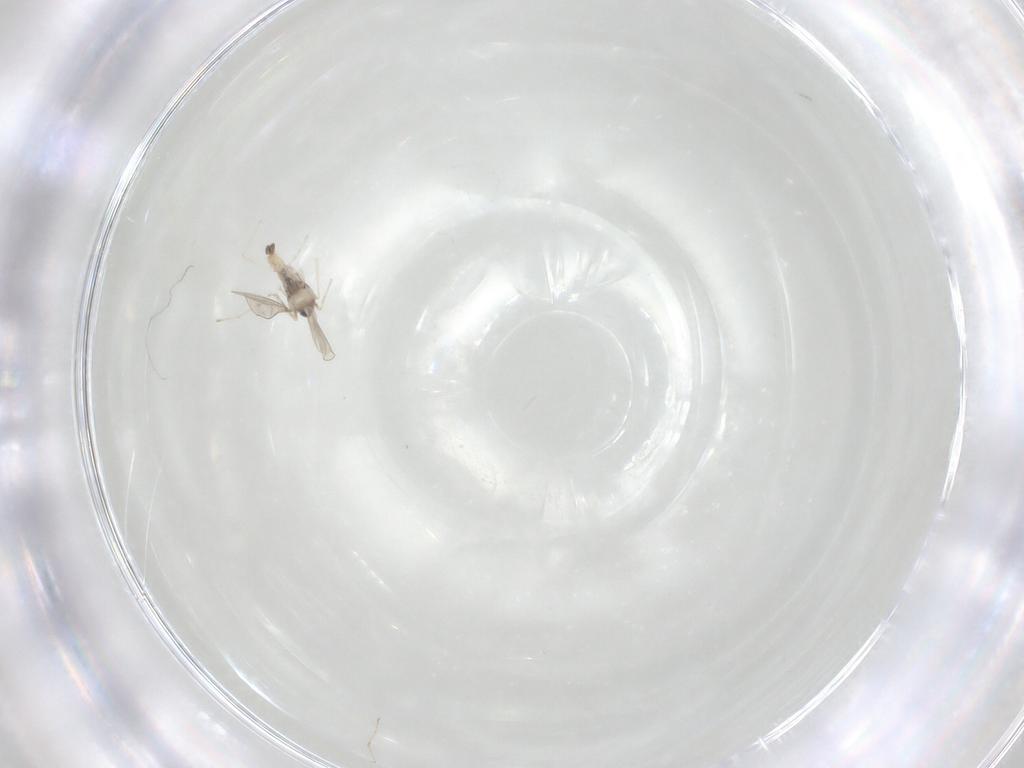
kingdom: Animalia
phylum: Arthropoda
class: Insecta
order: Diptera
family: Cecidomyiidae
